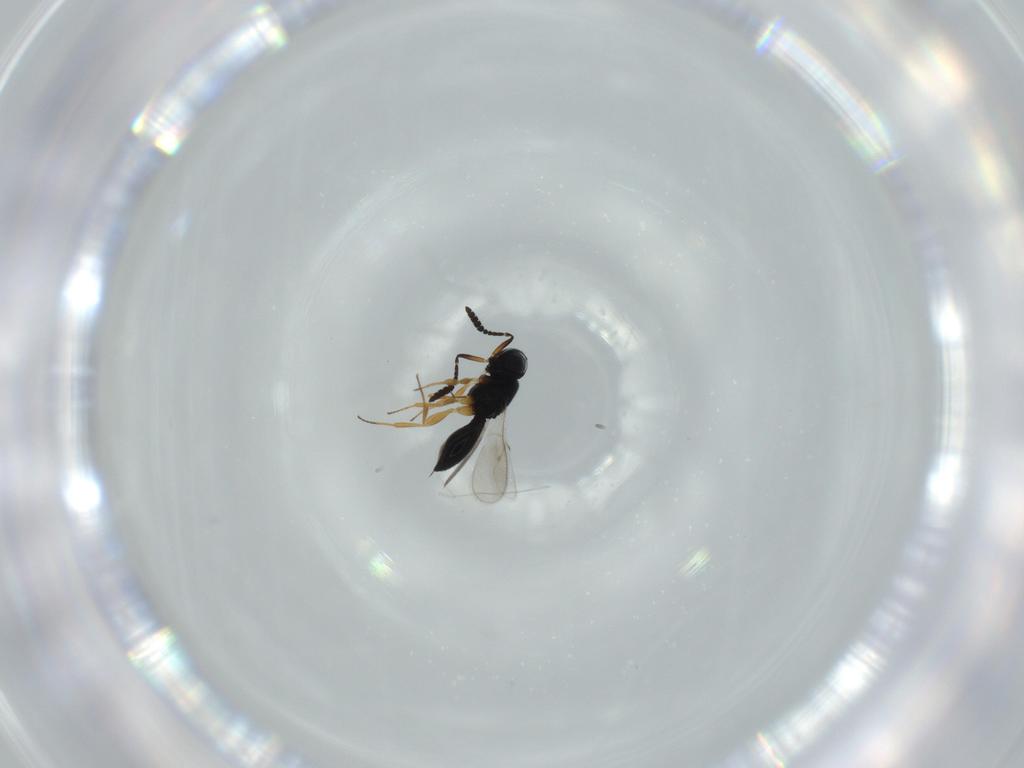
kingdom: Animalia
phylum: Arthropoda
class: Insecta
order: Hymenoptera
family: Scelionidae
